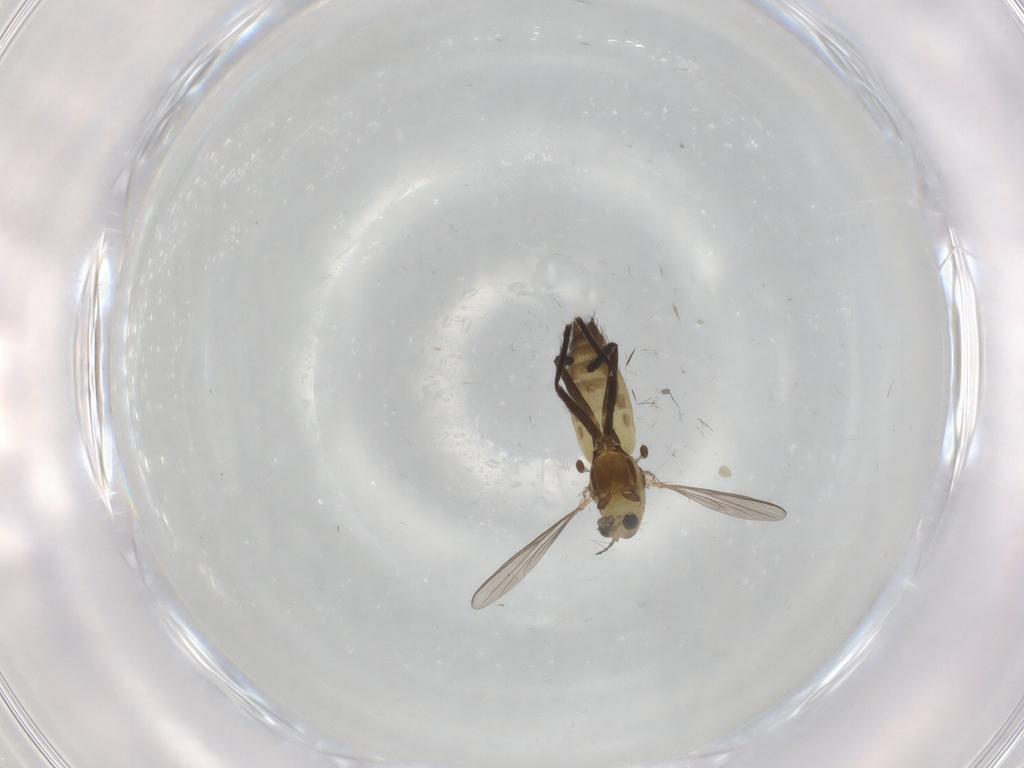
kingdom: Animalia
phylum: Arthropoda
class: Insecta
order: Diptera
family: Chironomidae
